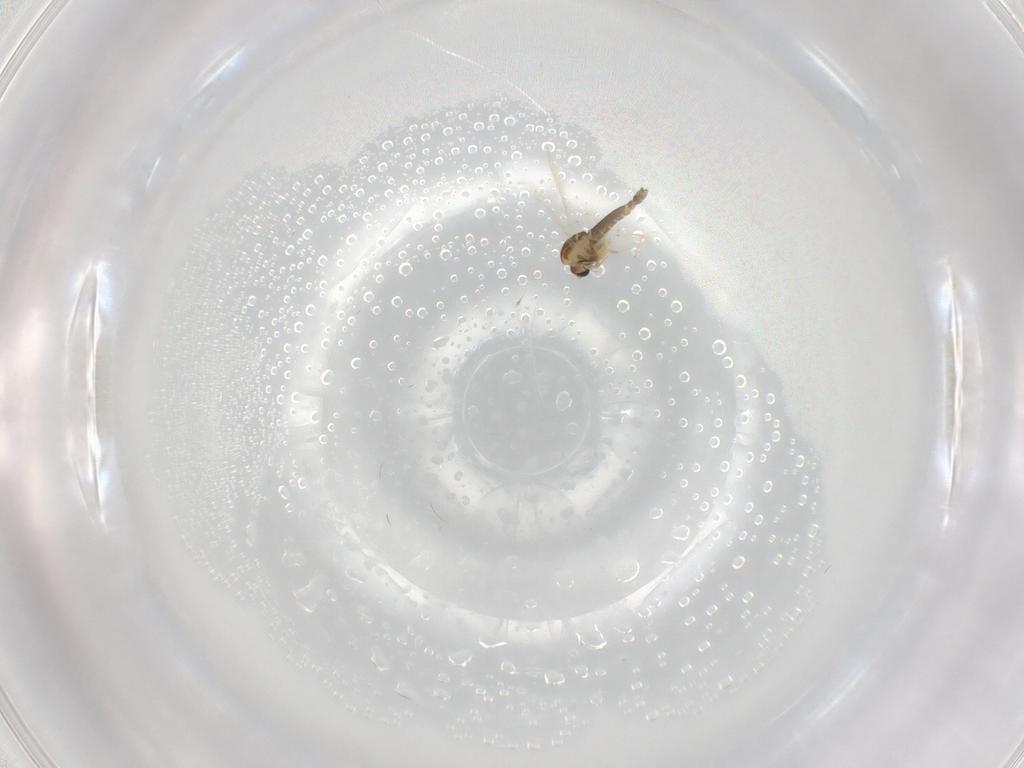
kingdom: Animalia
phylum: Arthropoda
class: Insecta
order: Diptera
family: Chironomidae
